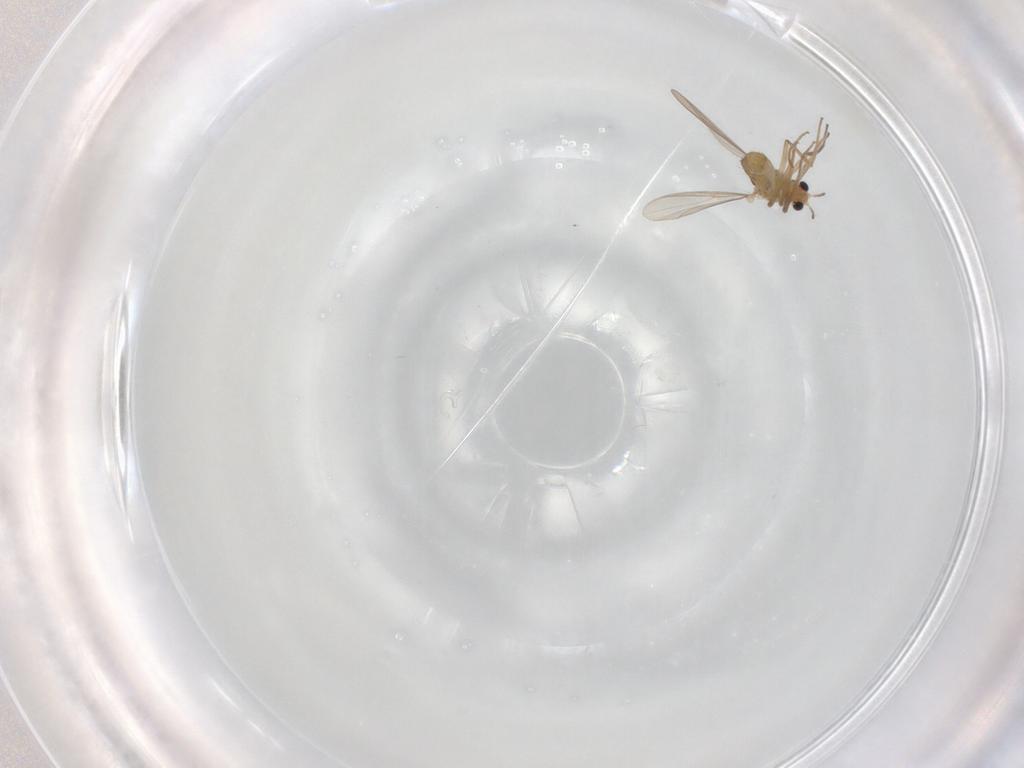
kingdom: Animalia
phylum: Arthropoda
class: Insecta
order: Diptera
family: Chironomidae
